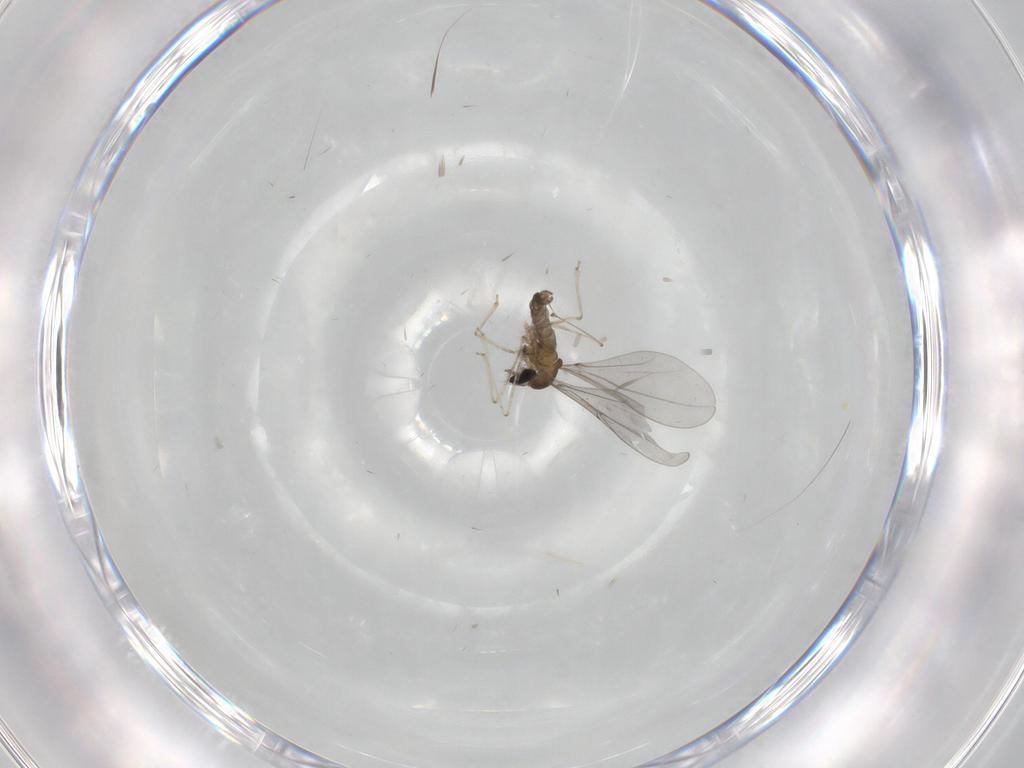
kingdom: Animalia
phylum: Arthropoda
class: Insecta
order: Diptera
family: Cecidomyiidae
